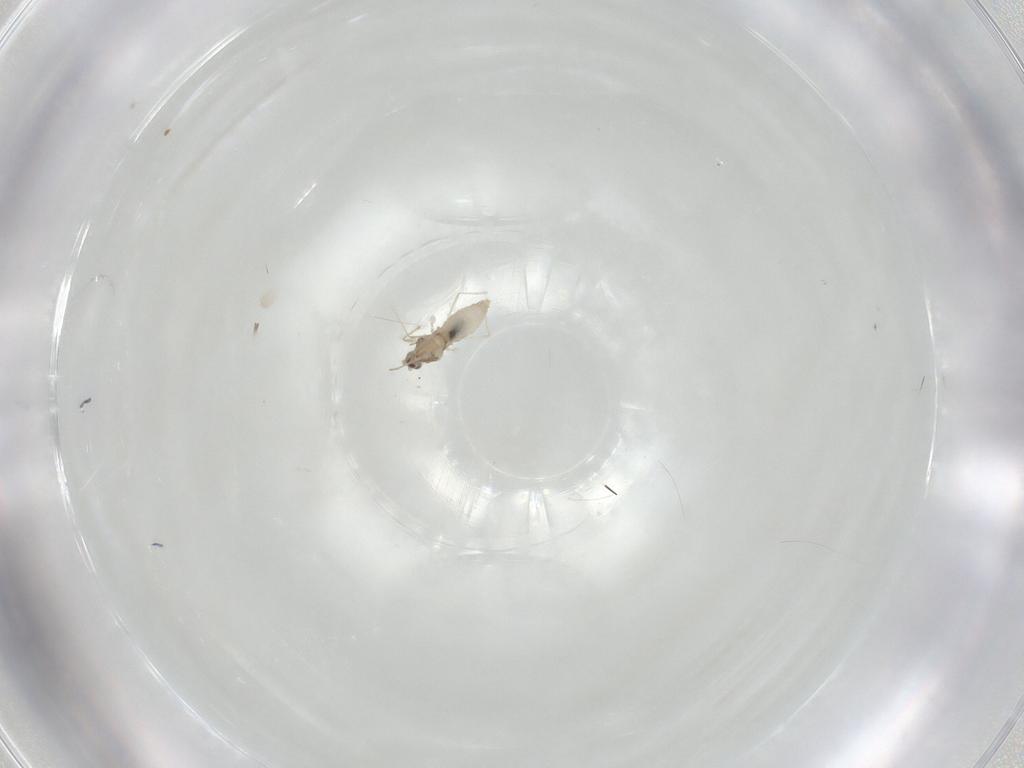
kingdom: Animalia
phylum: Arthropoda
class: Insecta
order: Diptera
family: Cecidomyiidae
